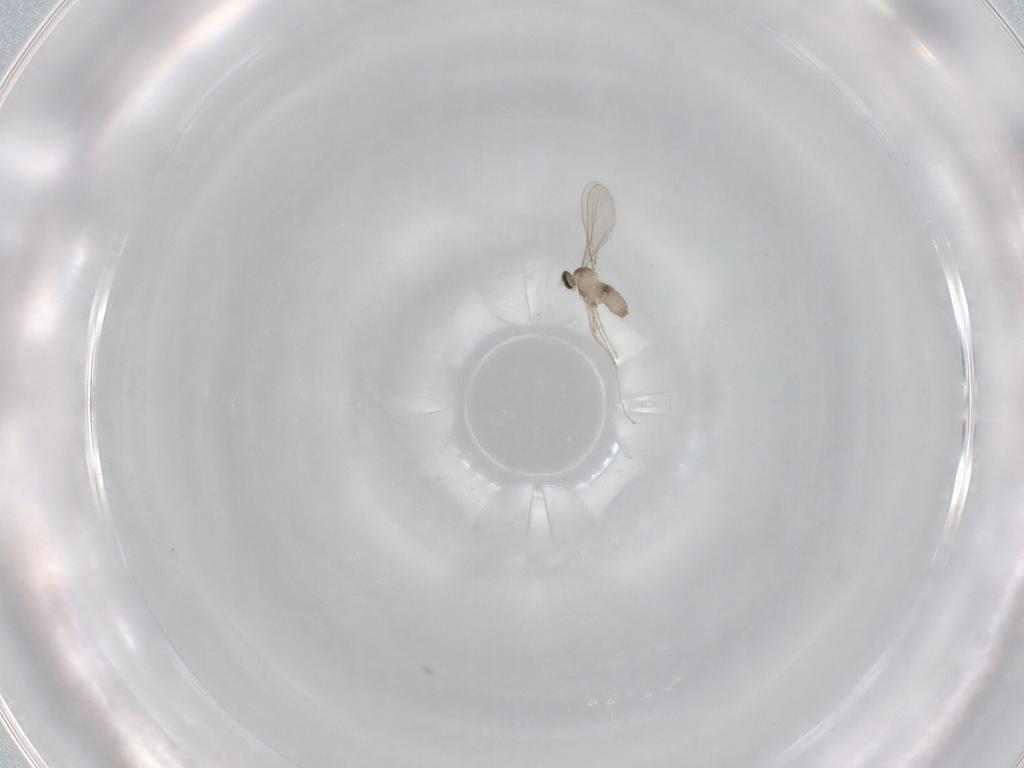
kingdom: Animalia
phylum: Arthropoda
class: Insecta
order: Diptera
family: Cecidomyiidae
